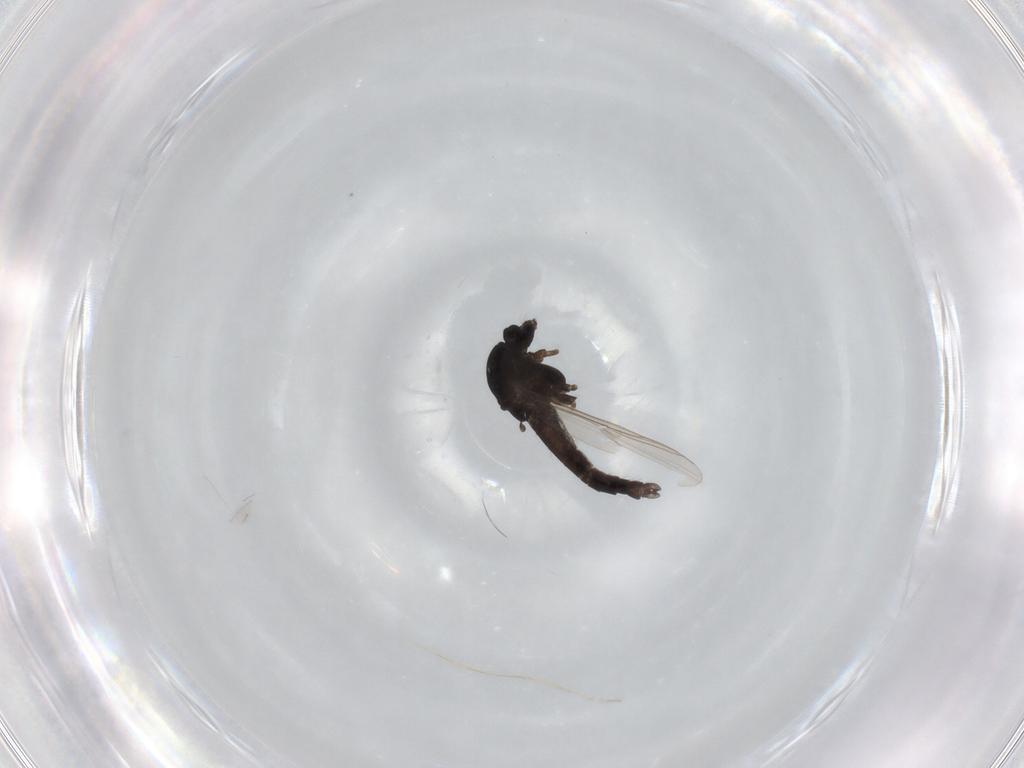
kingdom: Animalia
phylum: Arthropoda
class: Insecta
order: Diptera
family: Chironomidae
